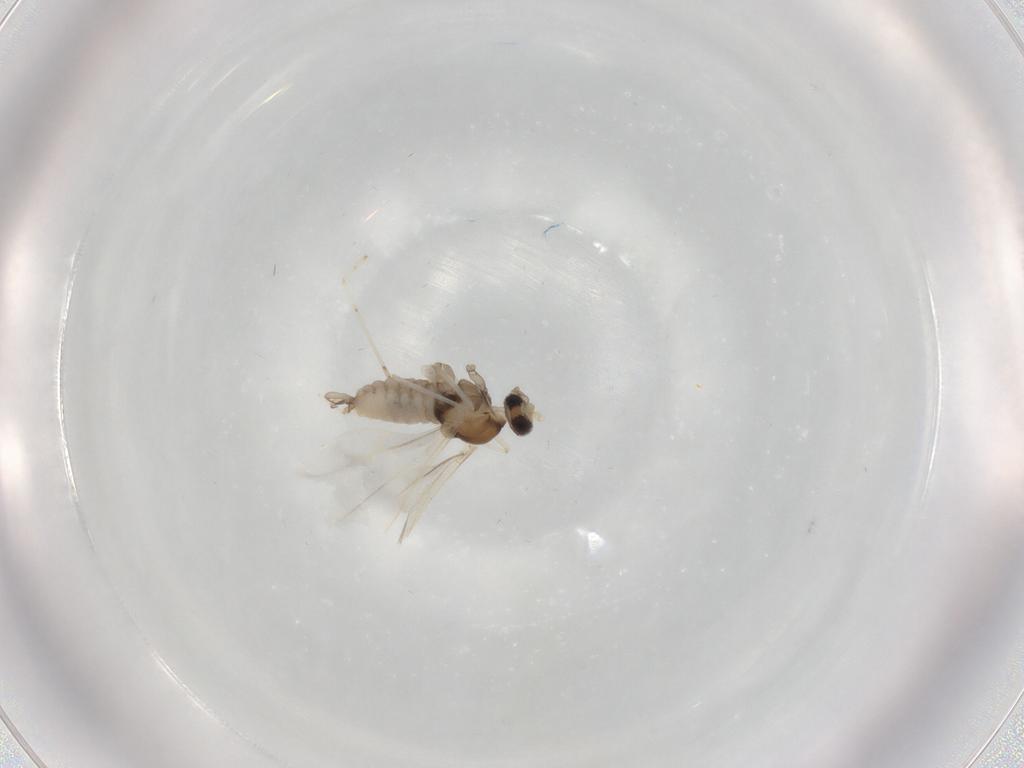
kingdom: Animalia
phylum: Arthropoda
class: Insecta
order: Diptera
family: Cecidomyiidae
